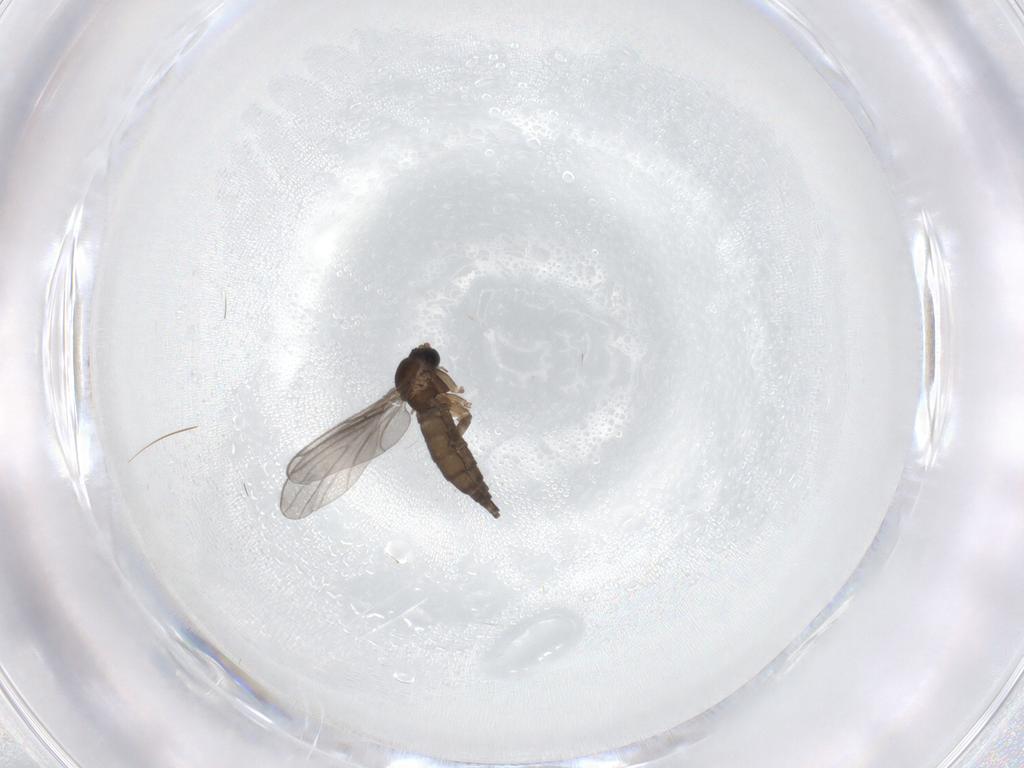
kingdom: Animalia
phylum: Arthropoda
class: Insecta
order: Diptera
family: Sciaridae
